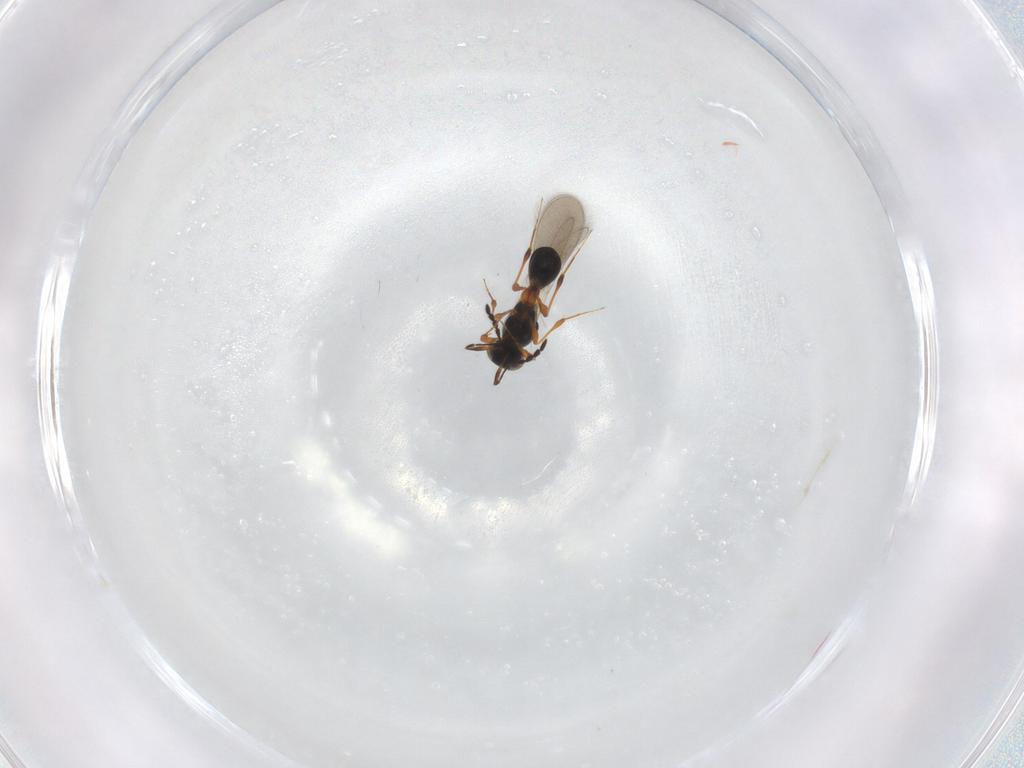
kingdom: Animalia
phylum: Arthropoda
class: Insecta
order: Hymenoptera
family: Platygastridae
